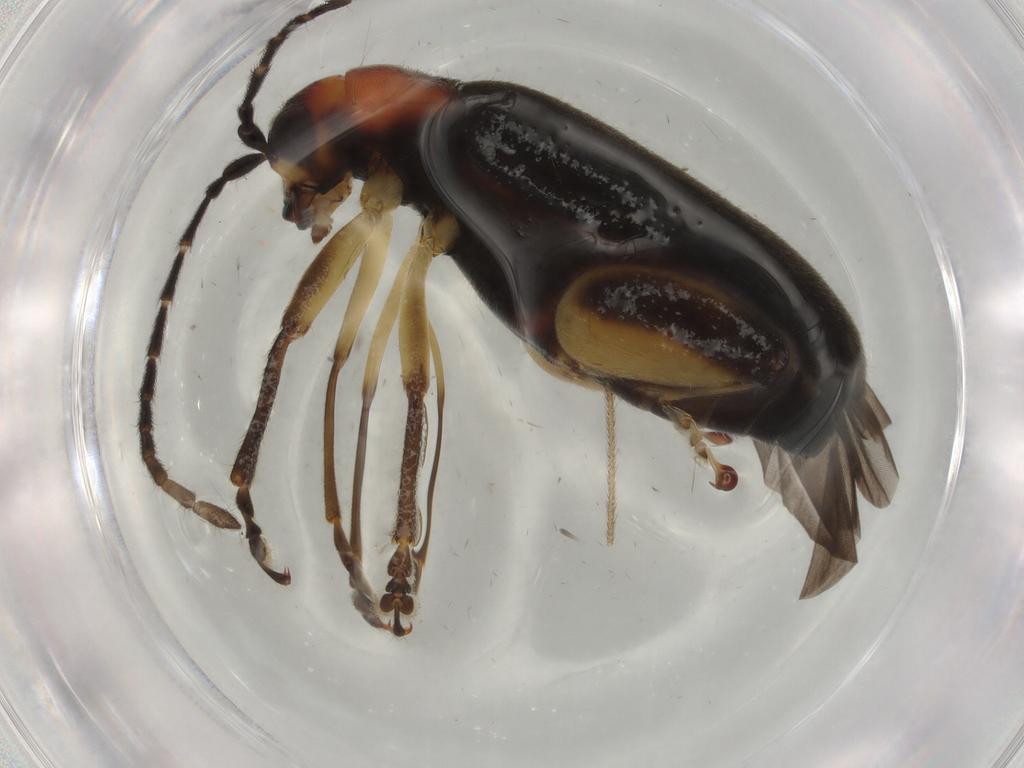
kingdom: Animalia
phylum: Arthropoda
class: Insecta
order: Coleoptera
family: Chrysomelidae
